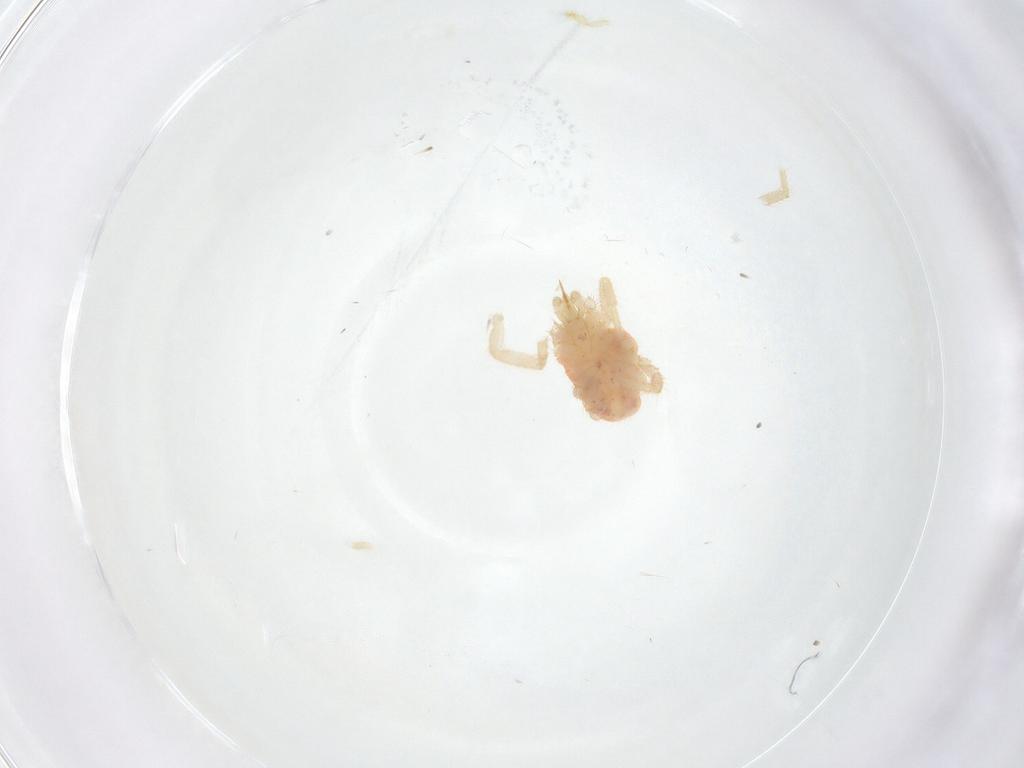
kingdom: Animalia
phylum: Arthropoda
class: Arachnida
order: Trombidiformes
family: Erythraeidae
